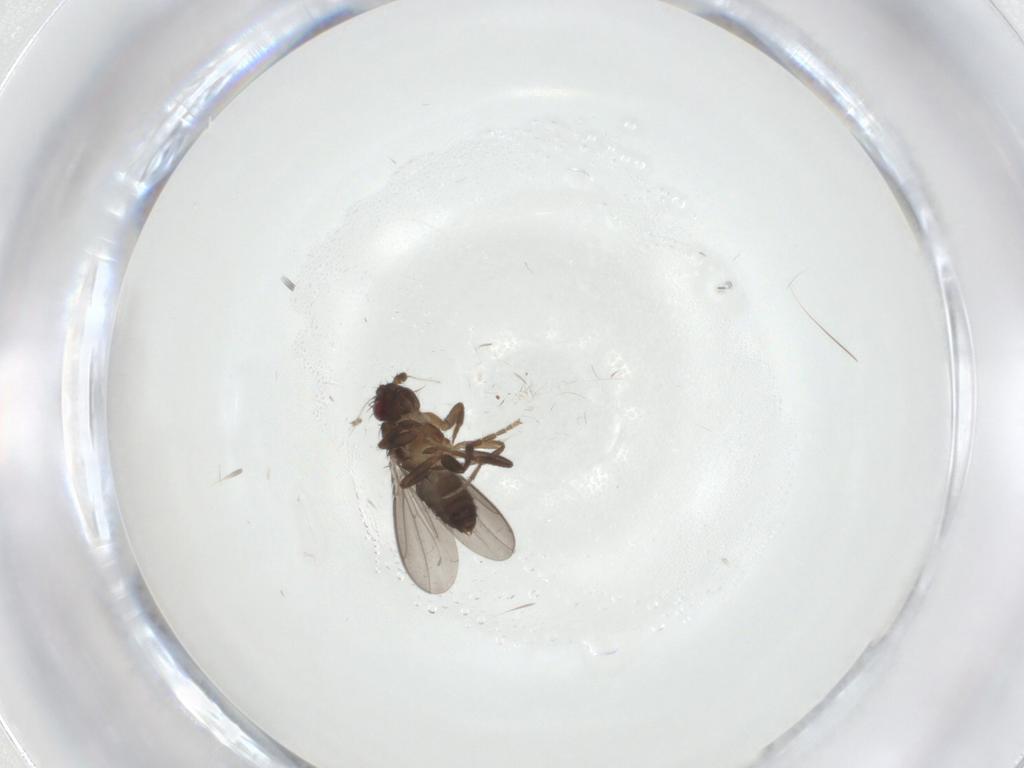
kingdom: Animalia
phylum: Arthropoda
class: Insecta
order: Diptera
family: Sphaeroceridae
